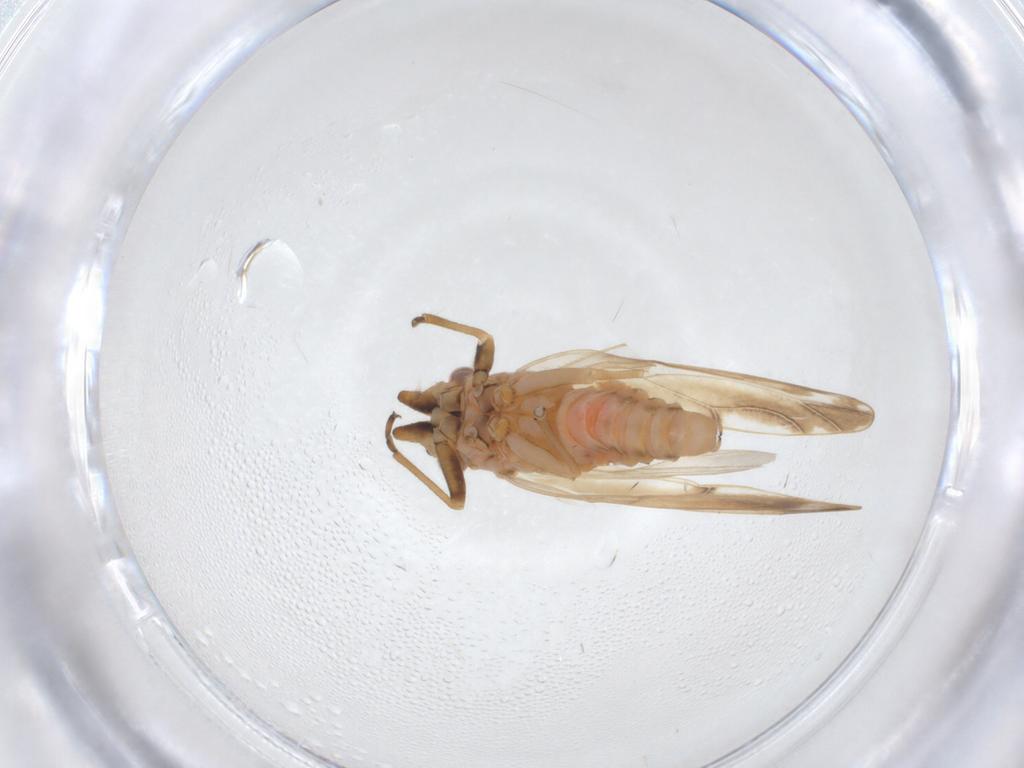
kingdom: Animalia
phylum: Arthropoda
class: Insecta
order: Hemiptera
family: Psyllidae
